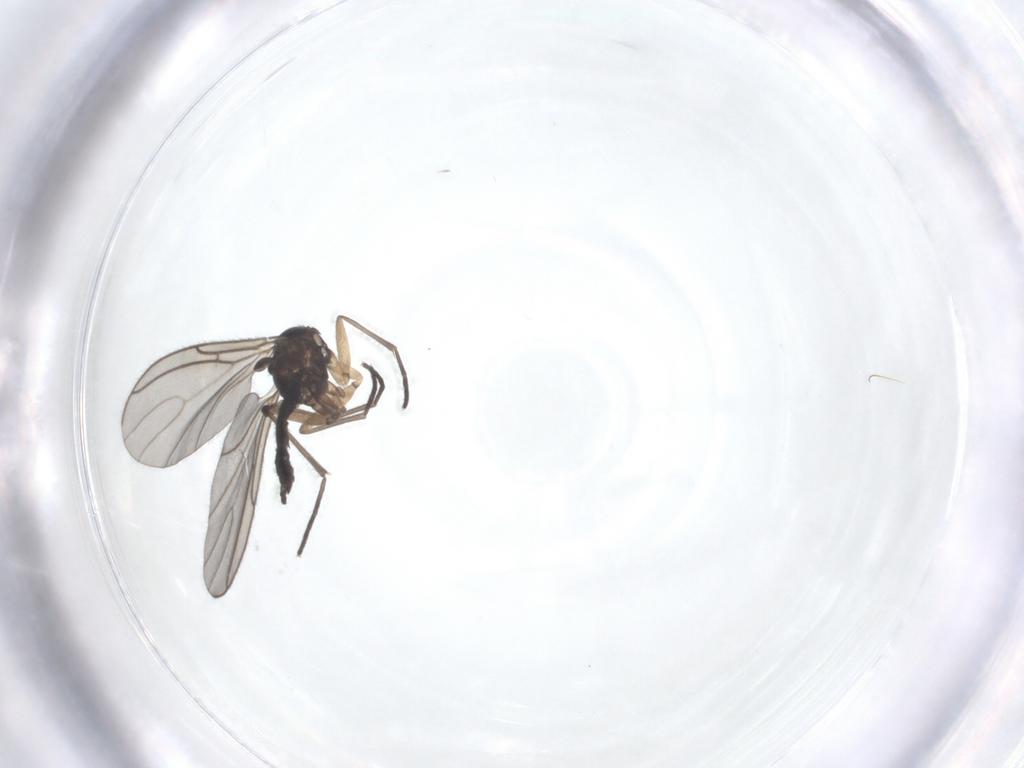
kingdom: Animalia
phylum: Arthropoda
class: Insecta
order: Diptera
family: Sciaridae
